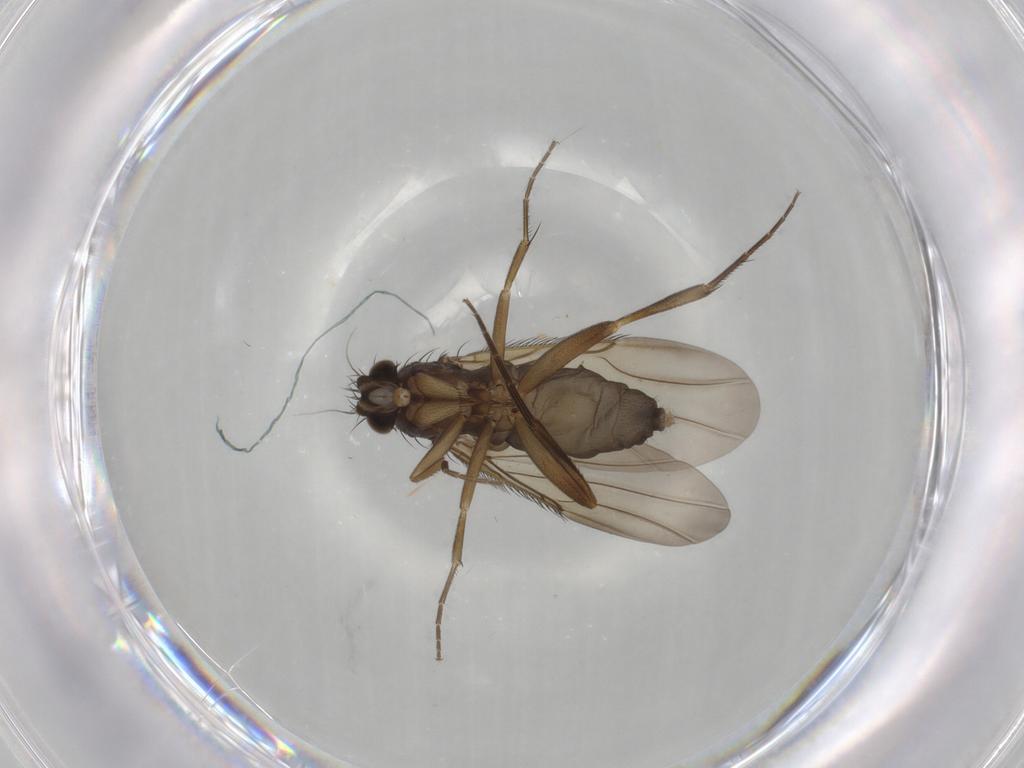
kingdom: Animalia
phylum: Arthropoda
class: Insecta
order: Diptera
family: Phoridae
